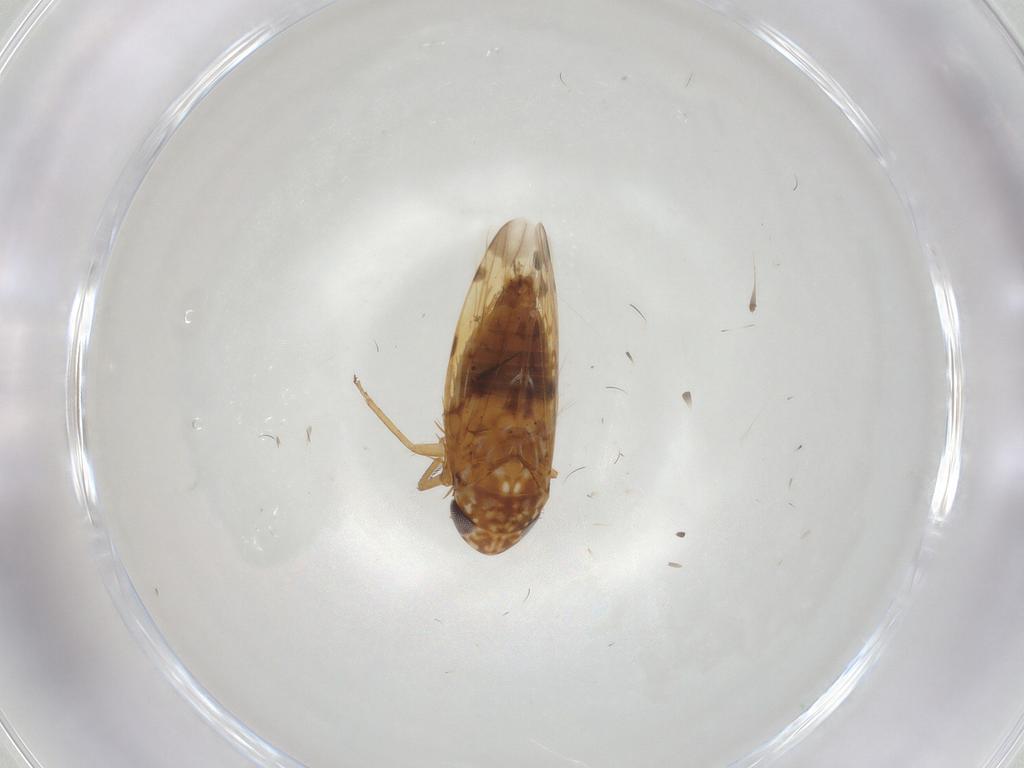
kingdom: Animalia
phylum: Arthropoda
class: Insecta
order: Hemiptera
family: Cicadellidae
